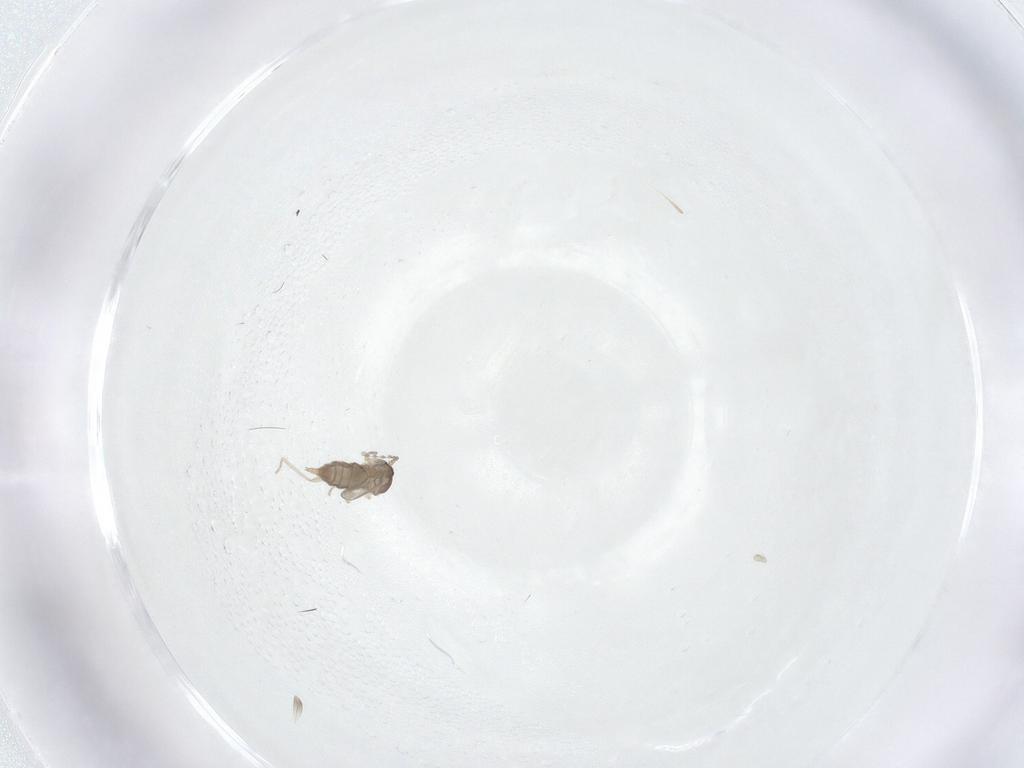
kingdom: Animalia
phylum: Arthropoda
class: Insecta
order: Diptera
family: Cecidomyiidae
